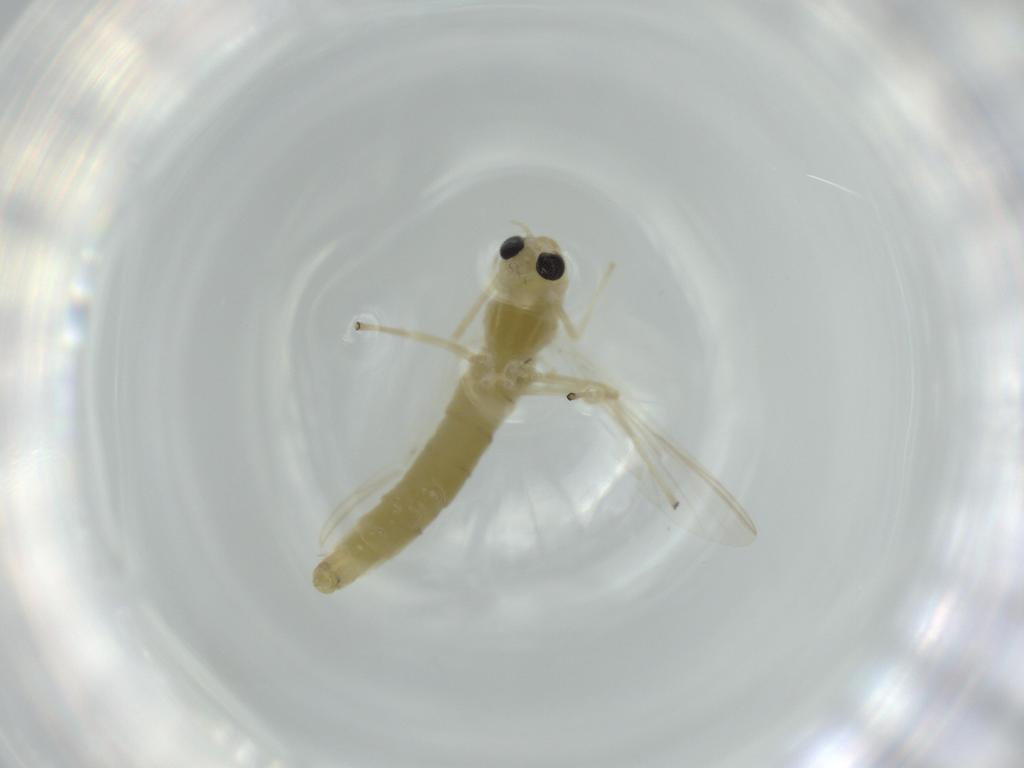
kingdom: Animalia
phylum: Arthropoda
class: Insecta
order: Diptera
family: Chironomidae
